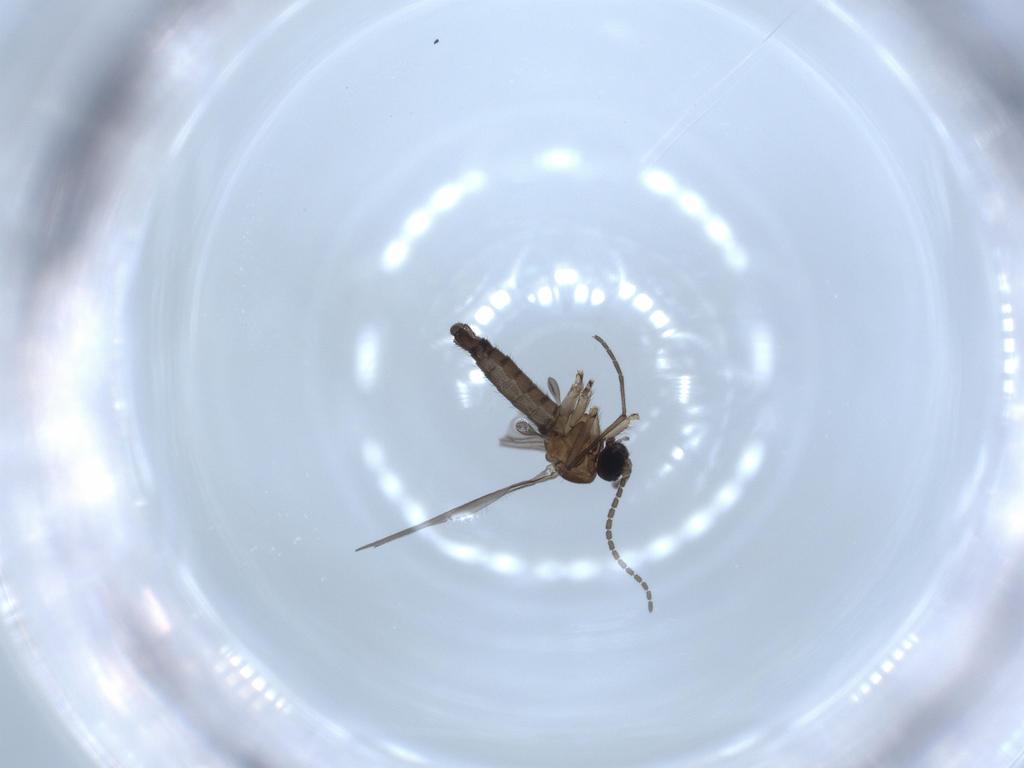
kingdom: Animalia
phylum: Arthropoda
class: Insecta
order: Diptera
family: Sciaridae
